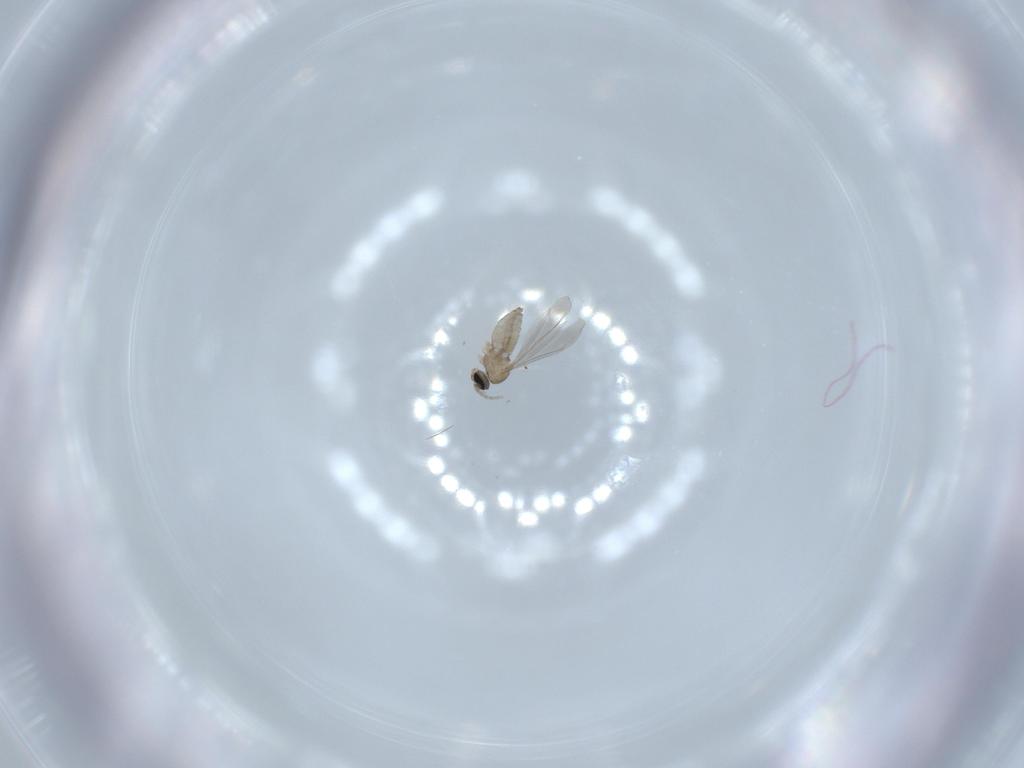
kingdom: Animalia
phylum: Arthropoda
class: Insecta
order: Diptera
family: Cecidomyiidae
